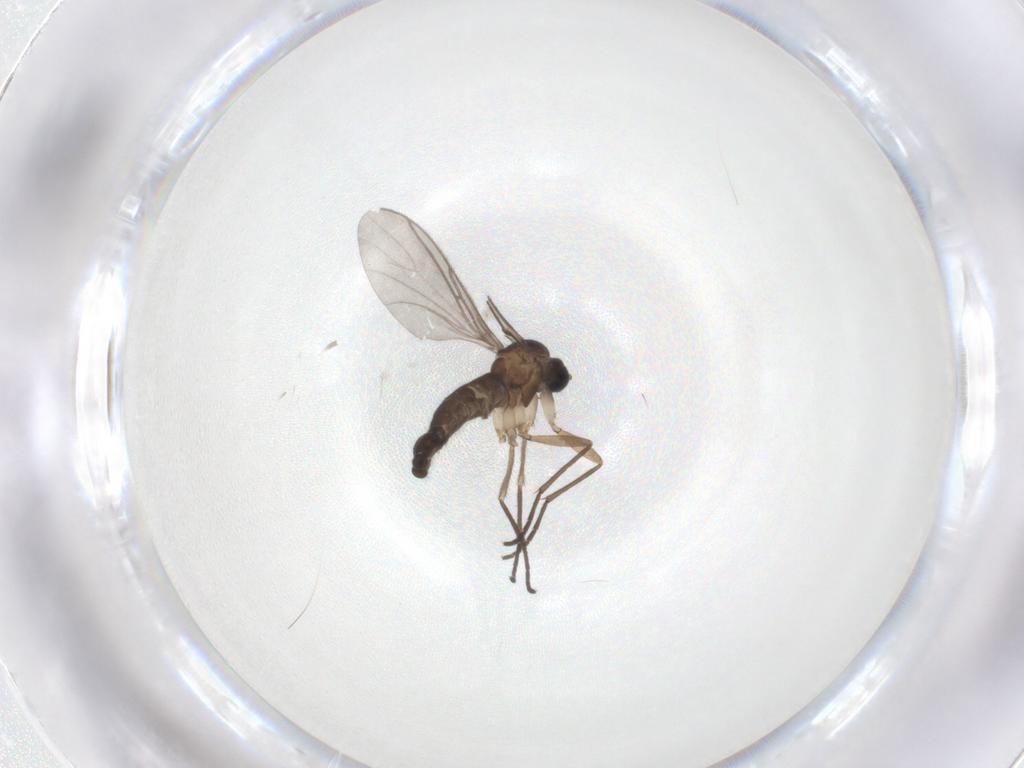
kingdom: Animalia
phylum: Arthropoda
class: Insecta
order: Diptera
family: Sciaridae
